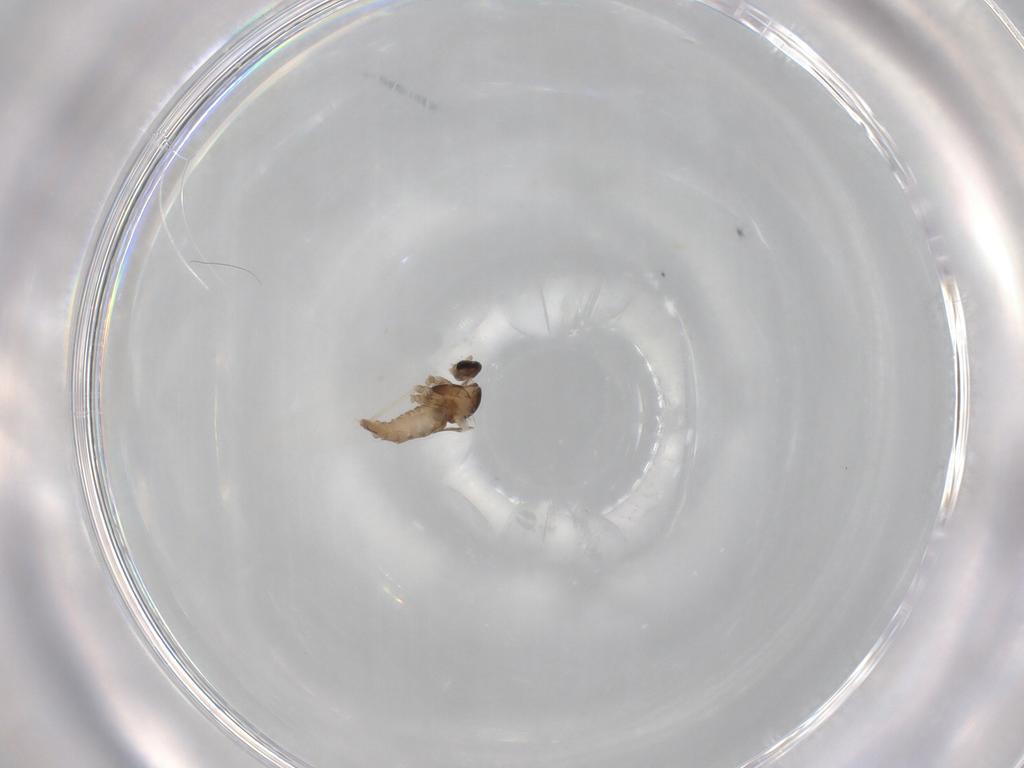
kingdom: Animalia
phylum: Arthropoda
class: Insecta
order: Diptera
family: Cecidomyiidae
